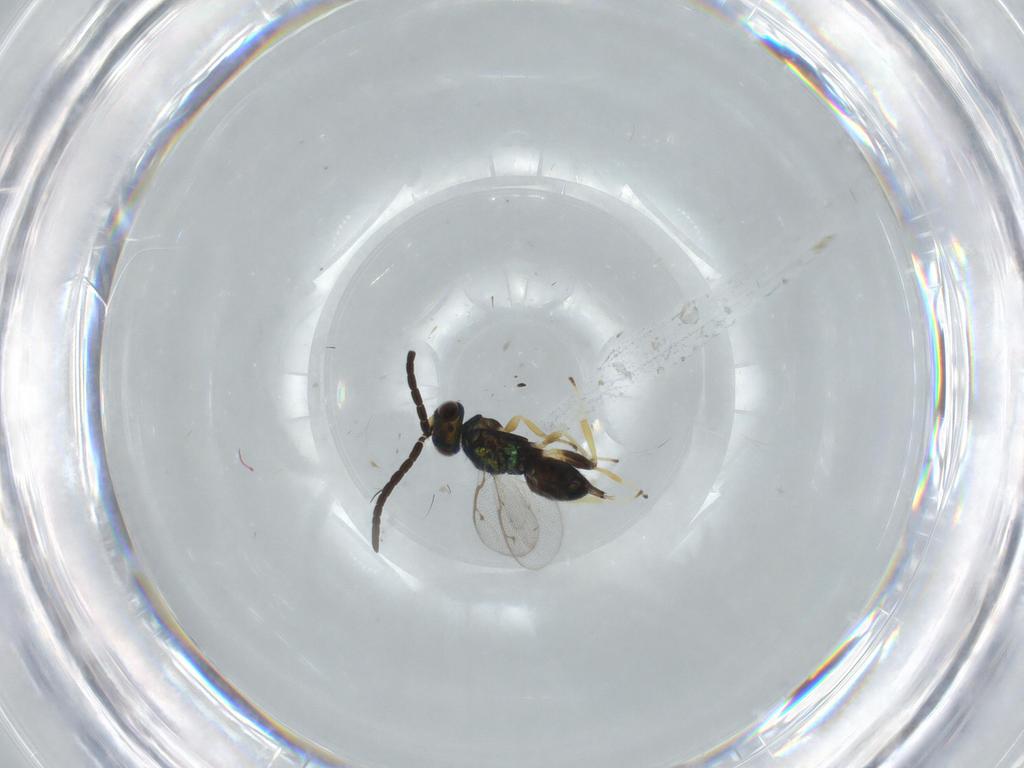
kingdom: Animalia
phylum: Arthropoda
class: Insecta
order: Hymenoptera
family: Eupelmidae
